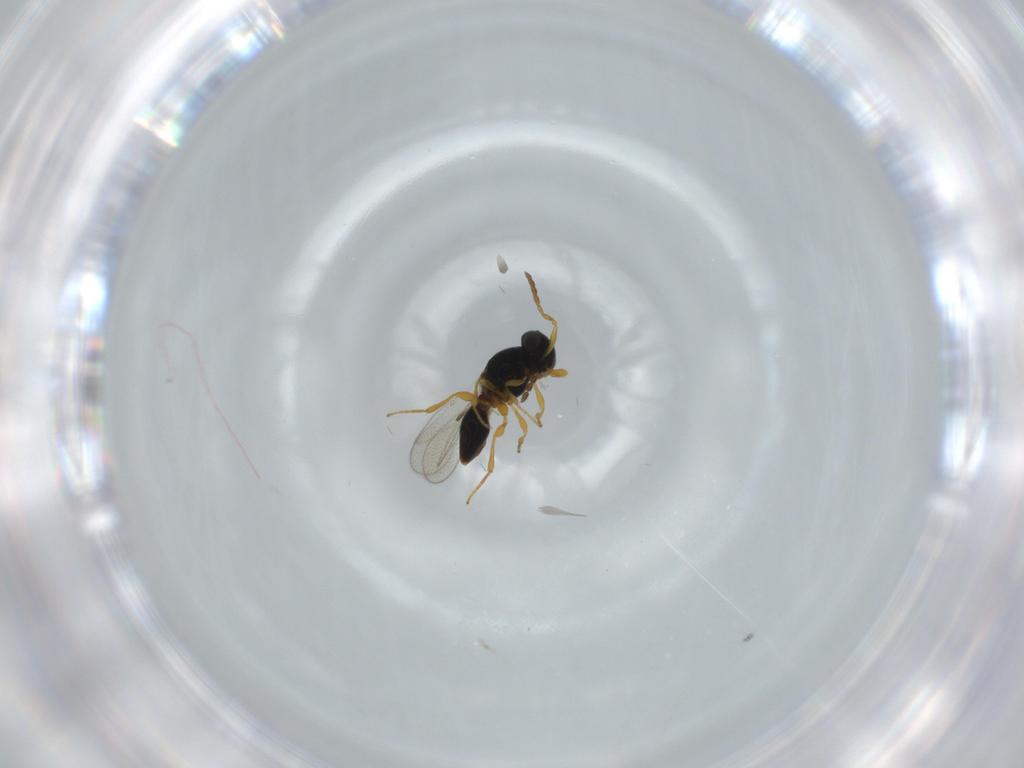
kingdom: Animalia
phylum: Arthropoda
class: Insecta
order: Hymenoptera
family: Platygastridae
